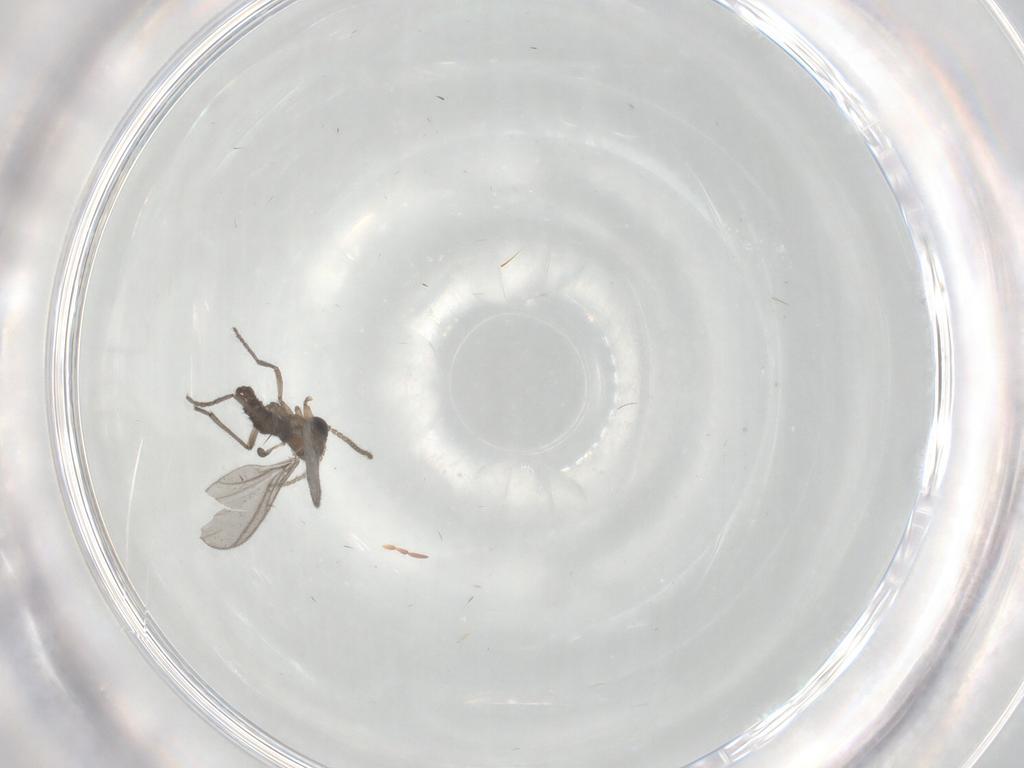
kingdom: Animalia
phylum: Arthropoda
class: Insecta
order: Diptera
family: Sciaridae
